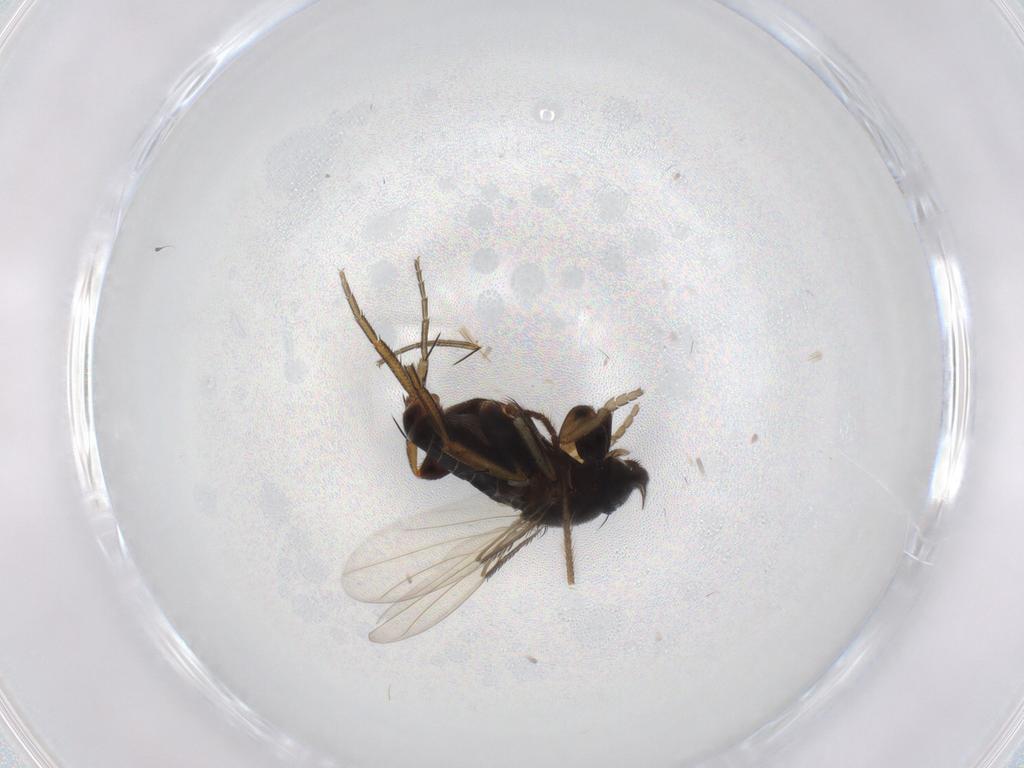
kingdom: Animalia
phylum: Arthropoda
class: Insecta
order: Diptera
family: Phoridae
